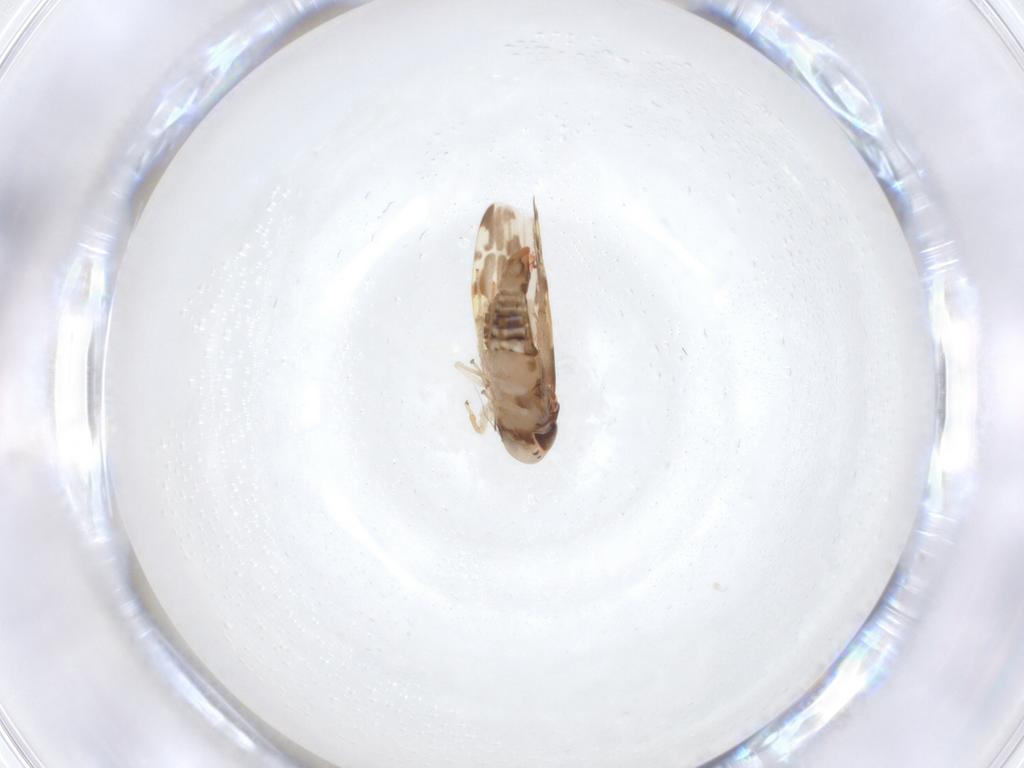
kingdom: Animalia
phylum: Arthropoda
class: Insecta
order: Hemiptera
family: Cicadellidae
